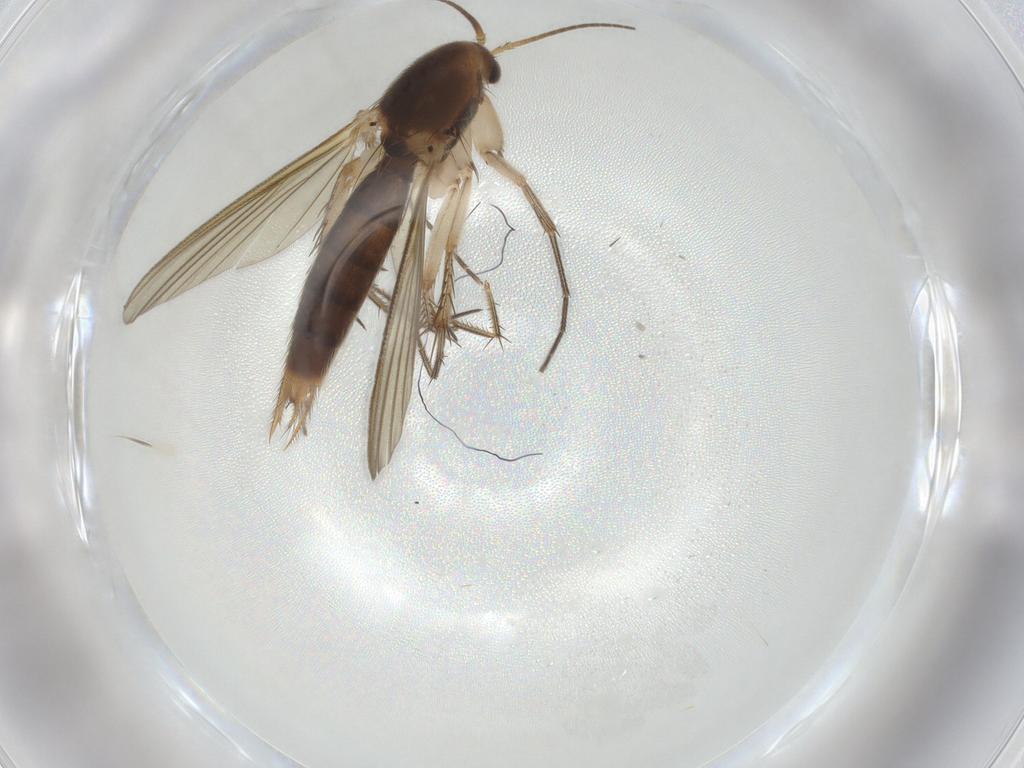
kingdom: Animalia
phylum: Arthropoda
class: Insecta
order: Diptera
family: Mycetophilidae
